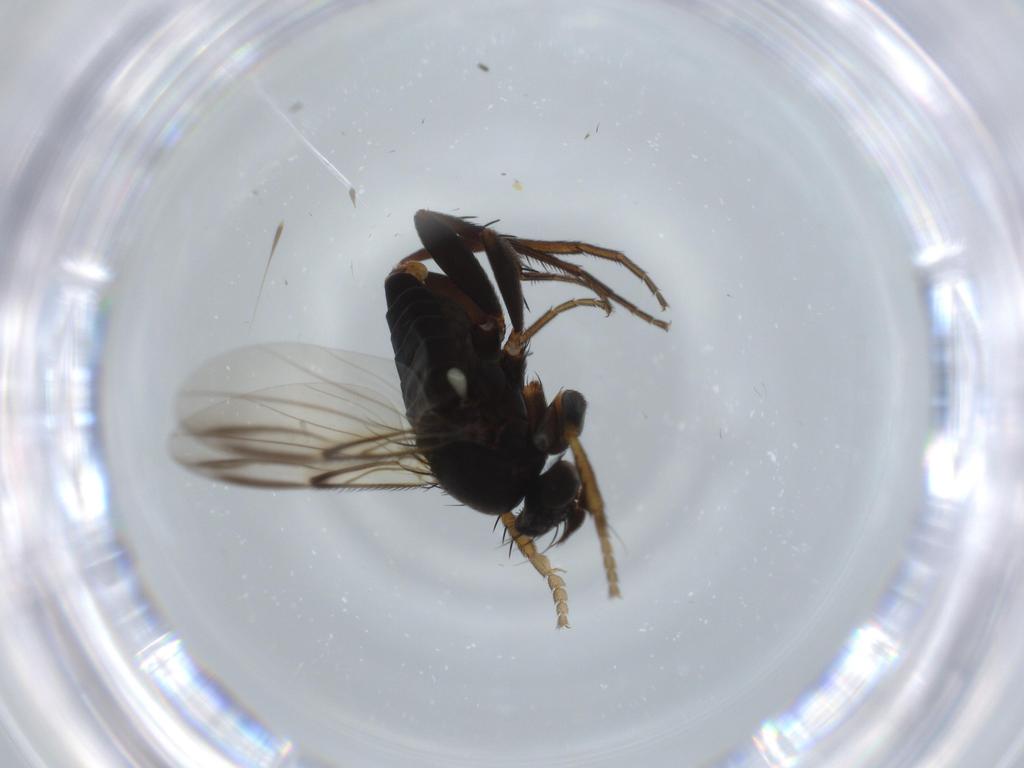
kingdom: Animalia
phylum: Arthropoda
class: Insecta
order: Diptera
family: Phoridae
